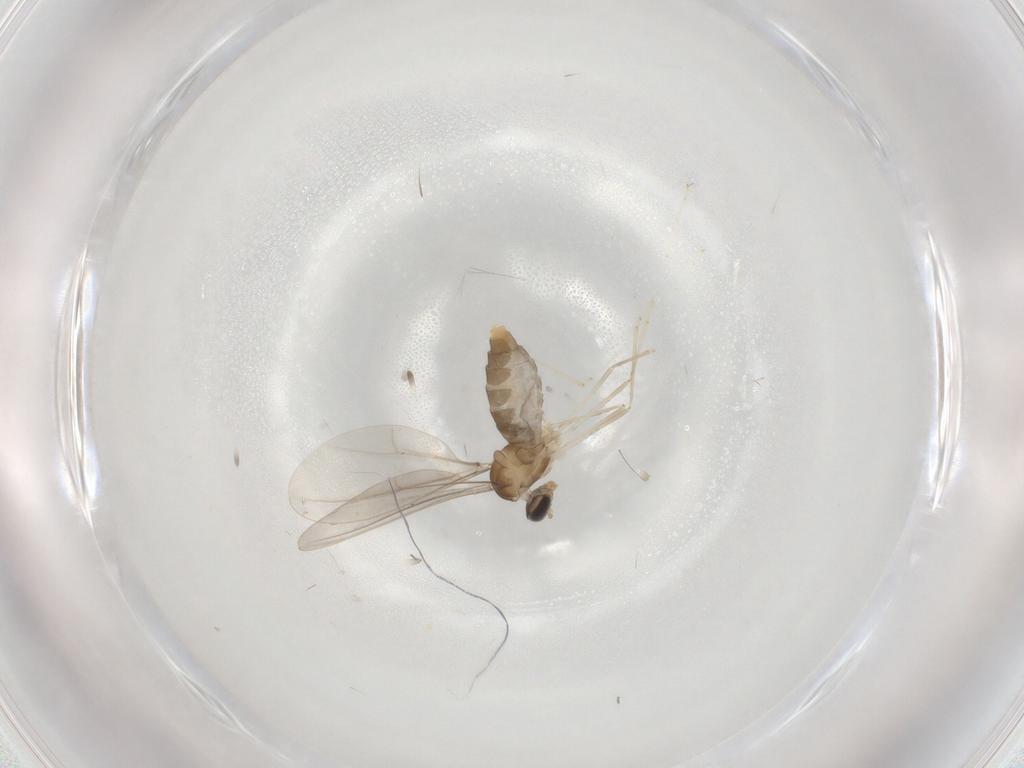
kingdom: Animalia
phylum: Arthropoda
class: Insecta
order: Diptera
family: Cecidomyiidae
